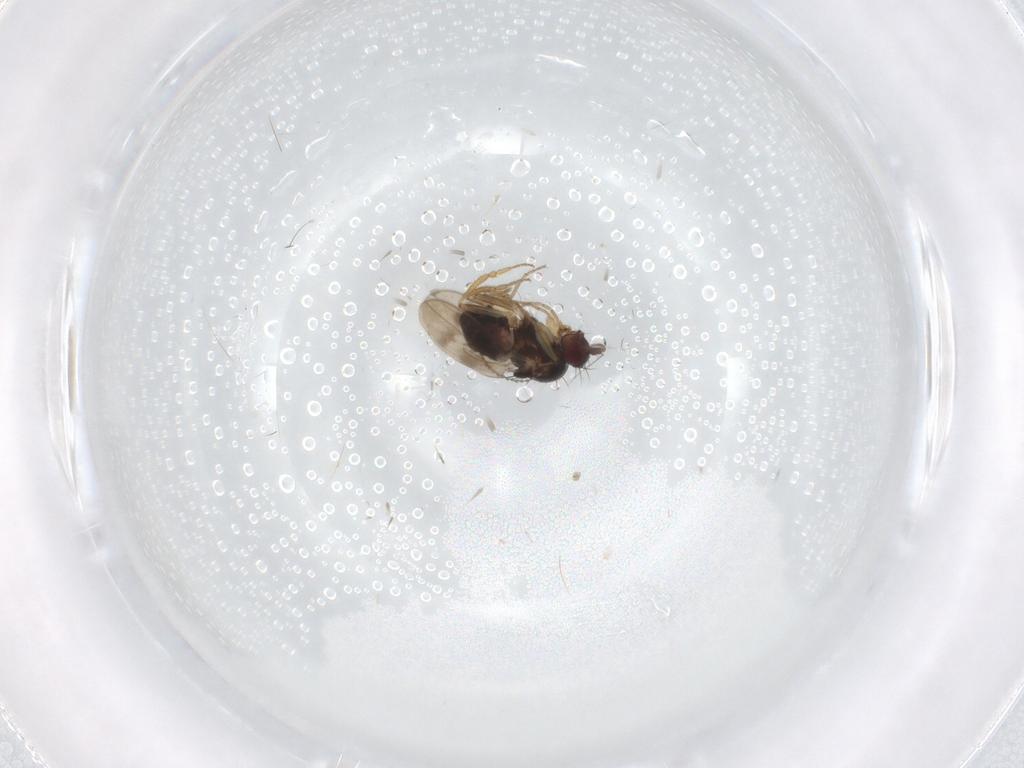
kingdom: Animalia
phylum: Arthropoda
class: Insecta
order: Diptera
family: Sphaeroceridae
